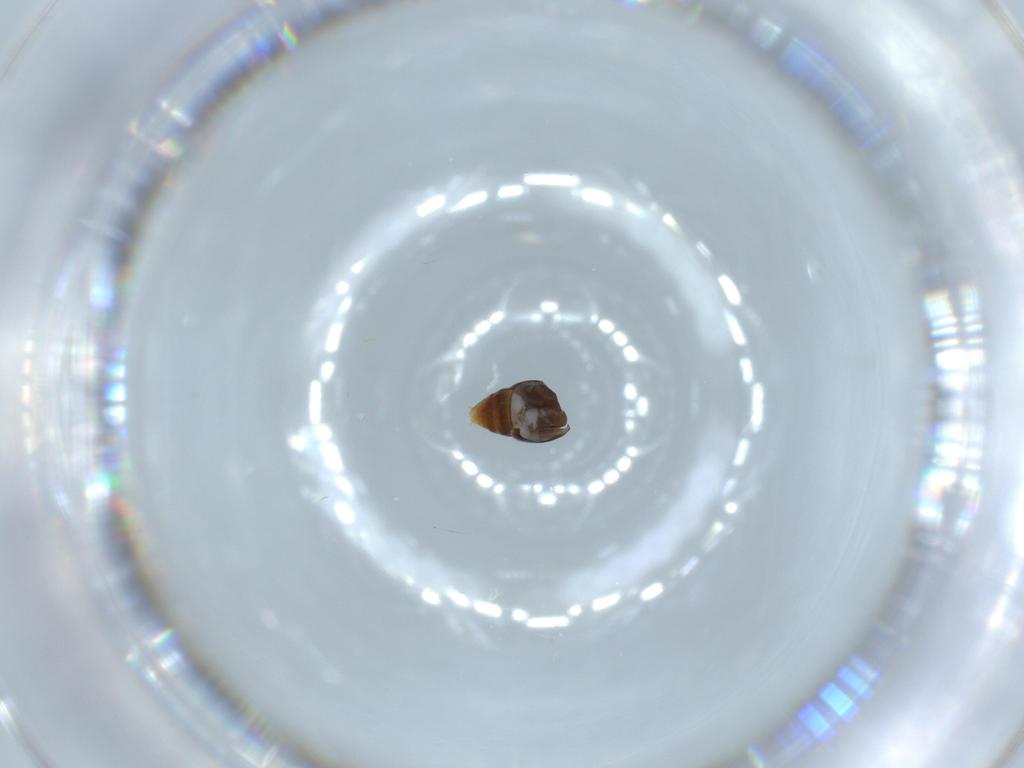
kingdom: Animalia
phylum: Arthropoda
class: Insecta
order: Hymenoptera
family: Formicidae
